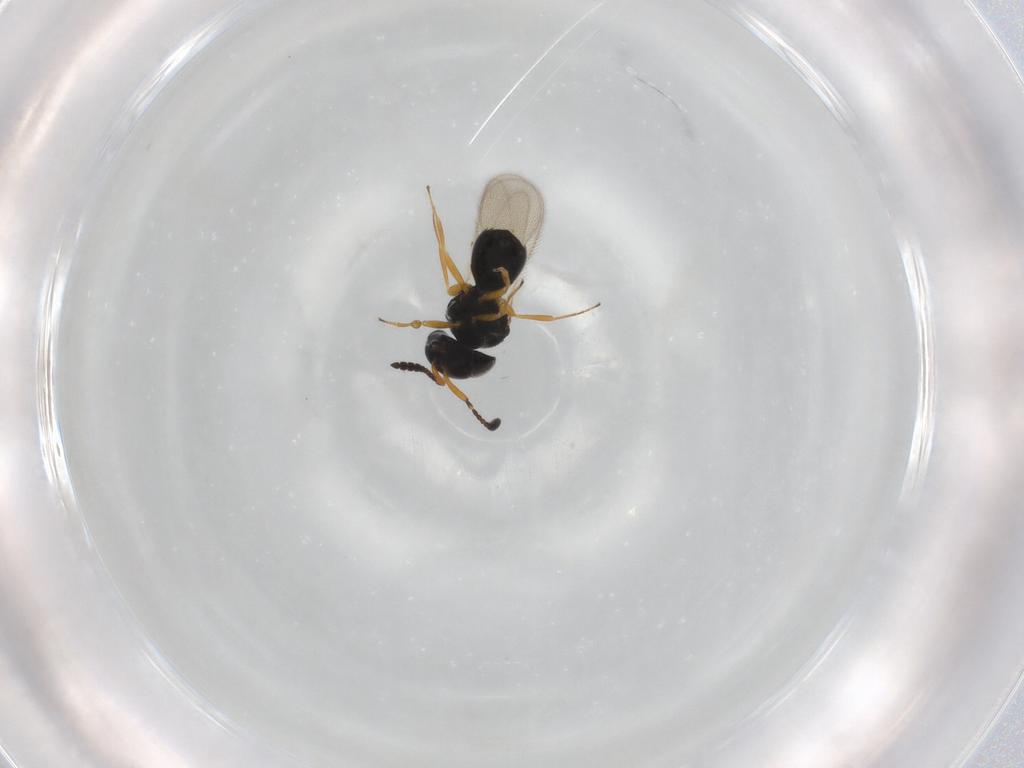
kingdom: Animalia
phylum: Arthropoda
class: Insecta
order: Hymenoptera
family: Scelionidae
